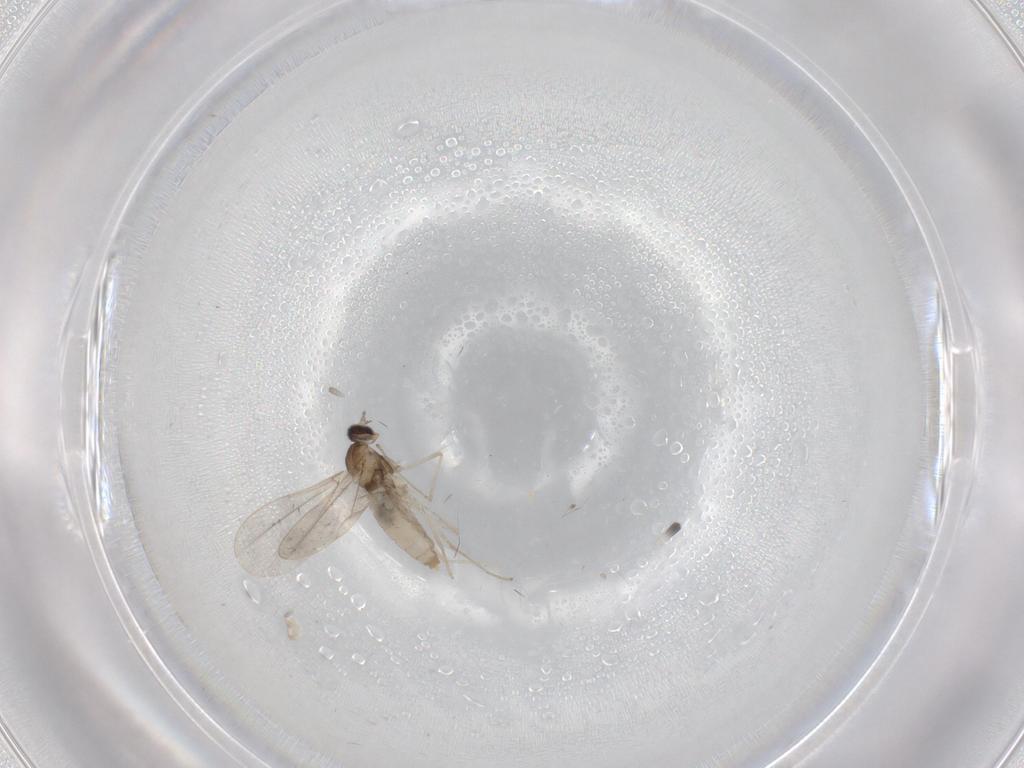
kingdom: Animalia
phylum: Arthropoda
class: Insecta
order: Diptera
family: Cecidomyiidae
